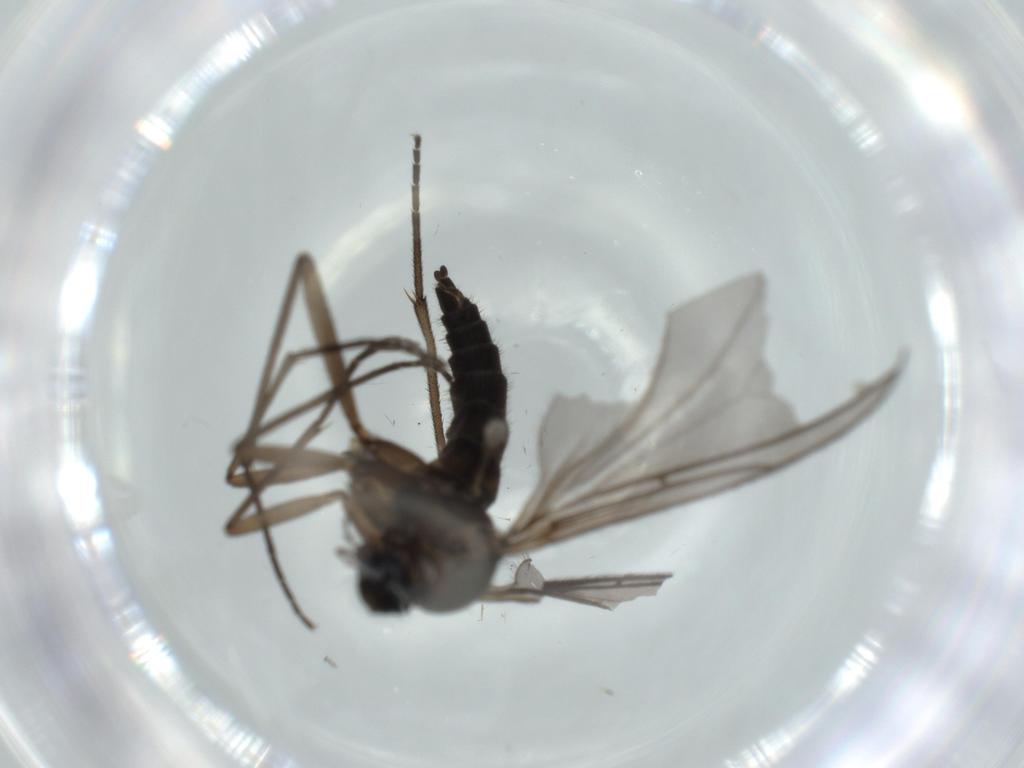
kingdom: Animalia
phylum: Arthropoda
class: Insecta
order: Diptera
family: Sciaridae
